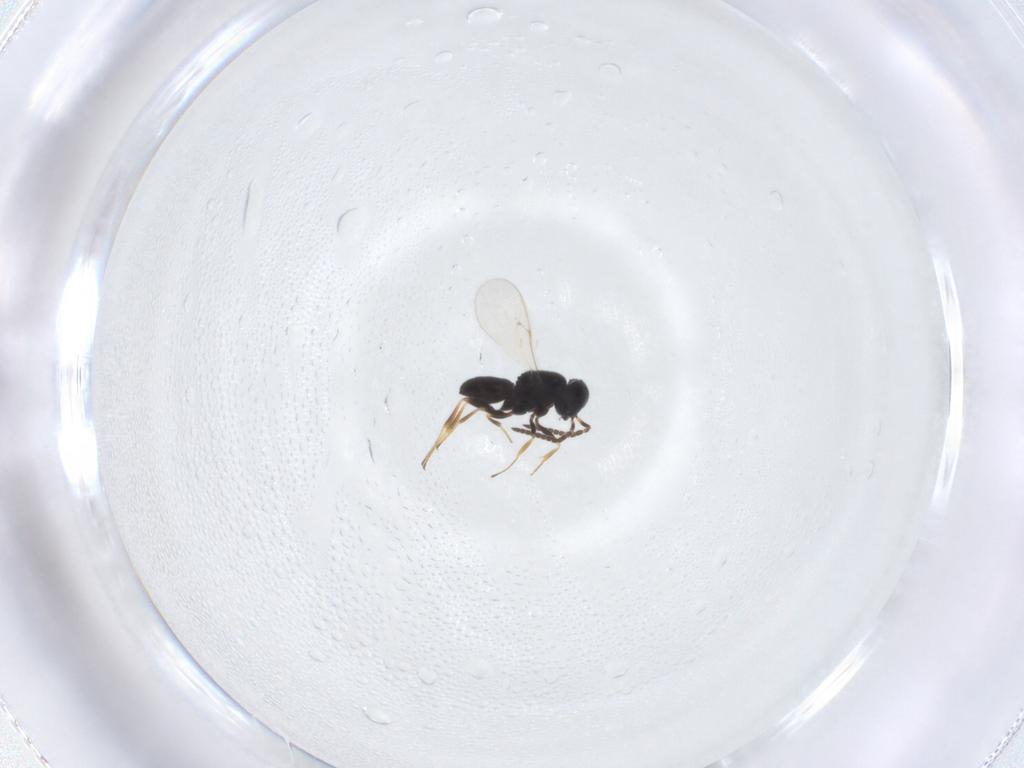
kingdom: Animalia
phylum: Arthropoda
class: Insecta
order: Hymenoptera
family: Scelionidae
